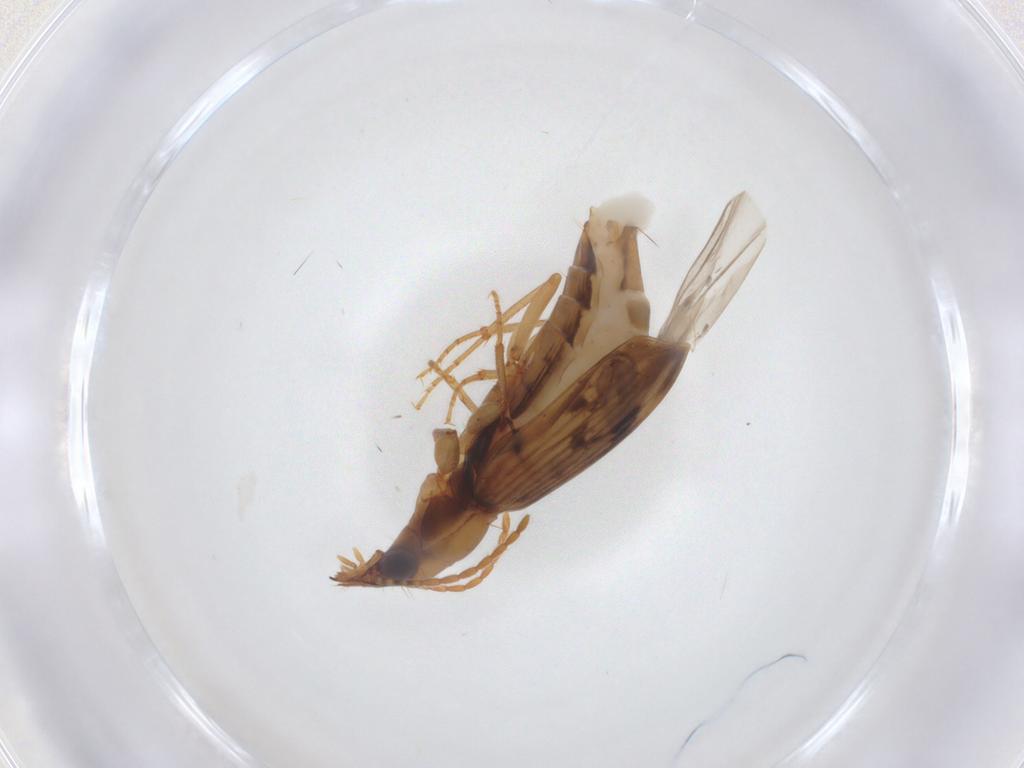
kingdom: Animalia
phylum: Arthropoda
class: Insecta
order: Coleoptera
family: Carabidae
